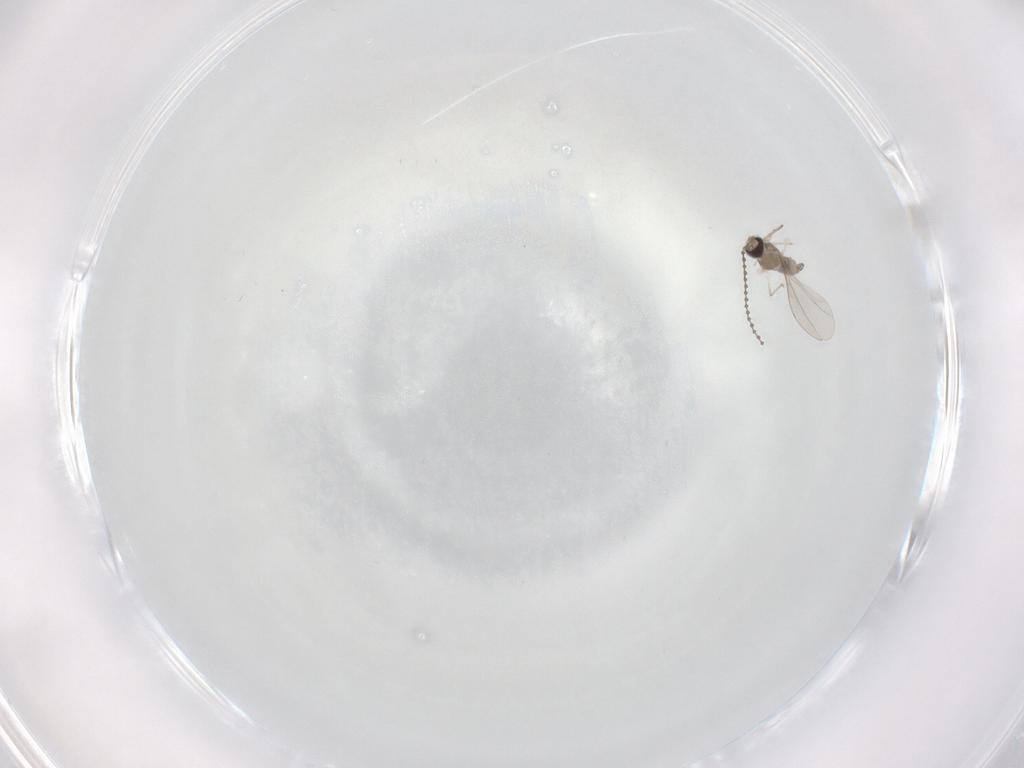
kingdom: Animalia
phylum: Arthropoda
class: Insecta
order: Diptera
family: Cecidomyiidae
